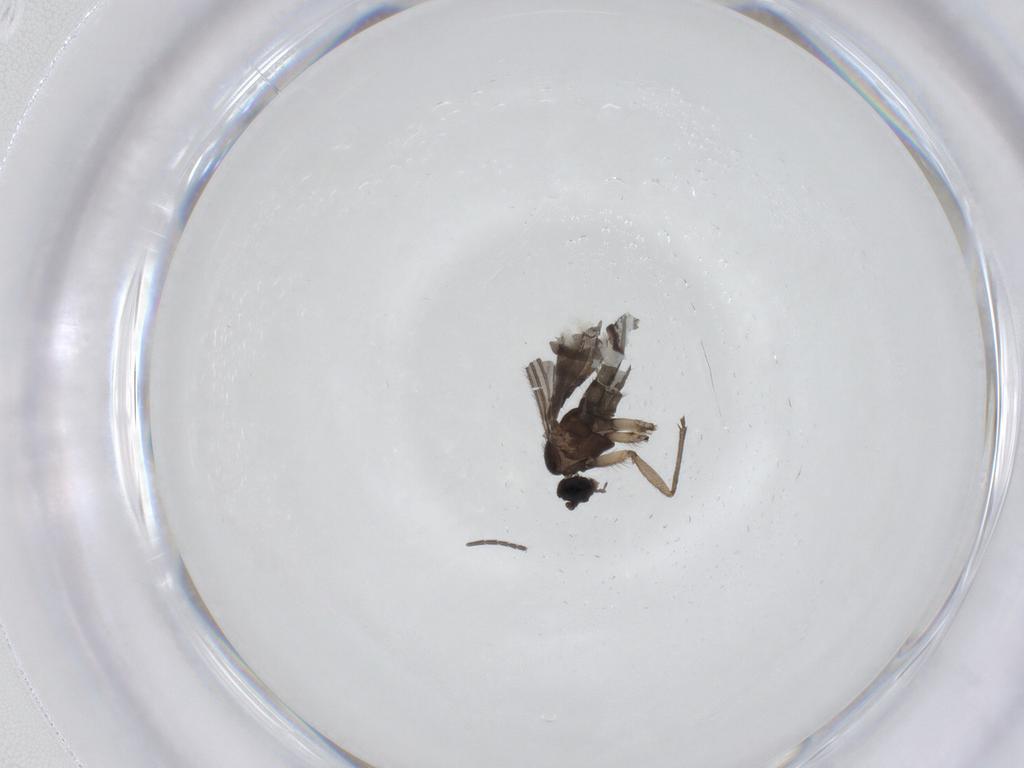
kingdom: Animalia
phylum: Arthropoda
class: Insecta
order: Diptera
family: Sciaridae
